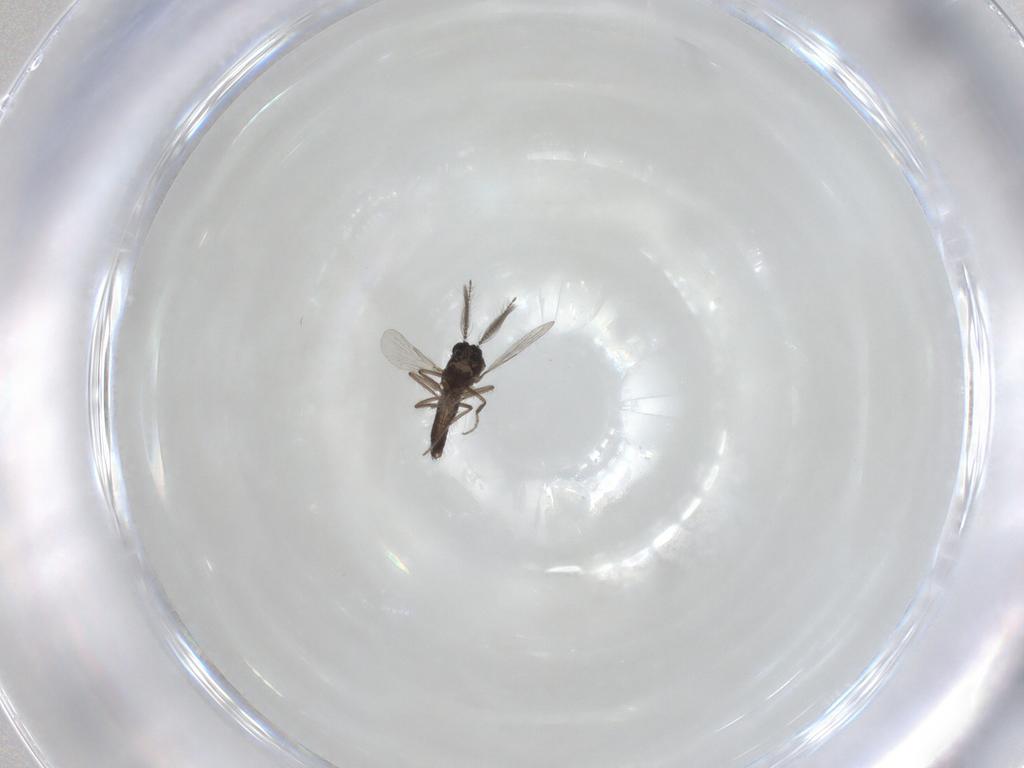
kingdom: Animalia
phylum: Arthropoda
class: Insecta
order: Diptera
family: Ceratopogonidae
